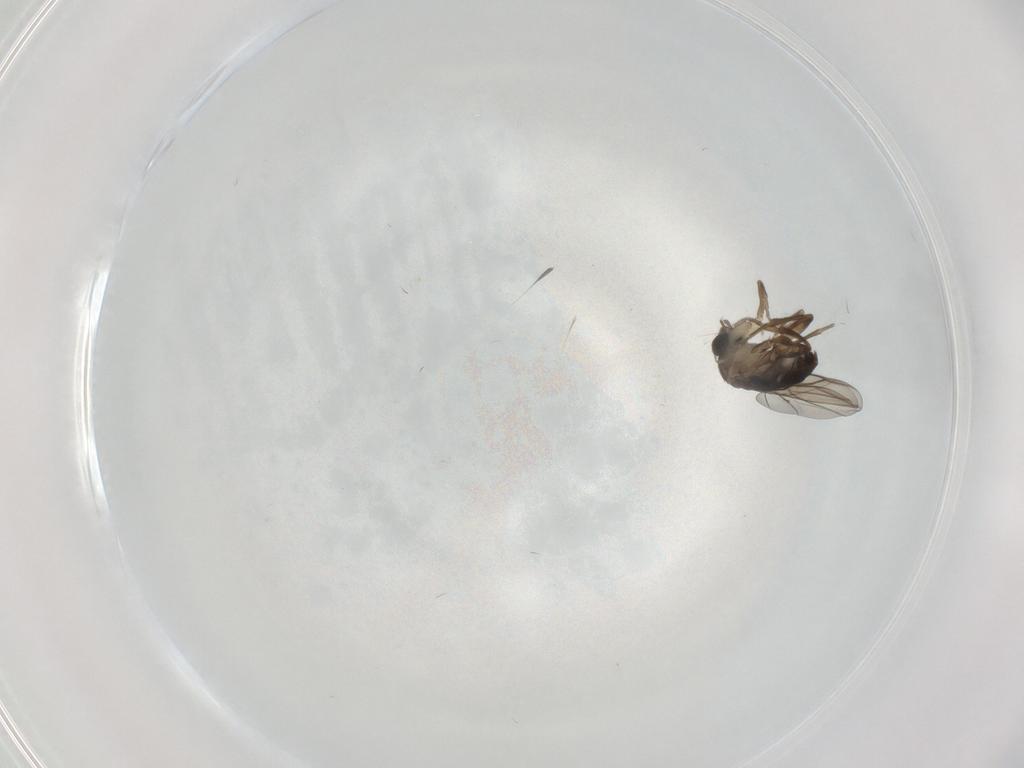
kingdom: Animalia
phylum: Arthropoda
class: Insecta
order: Diptera
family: Phoridae
